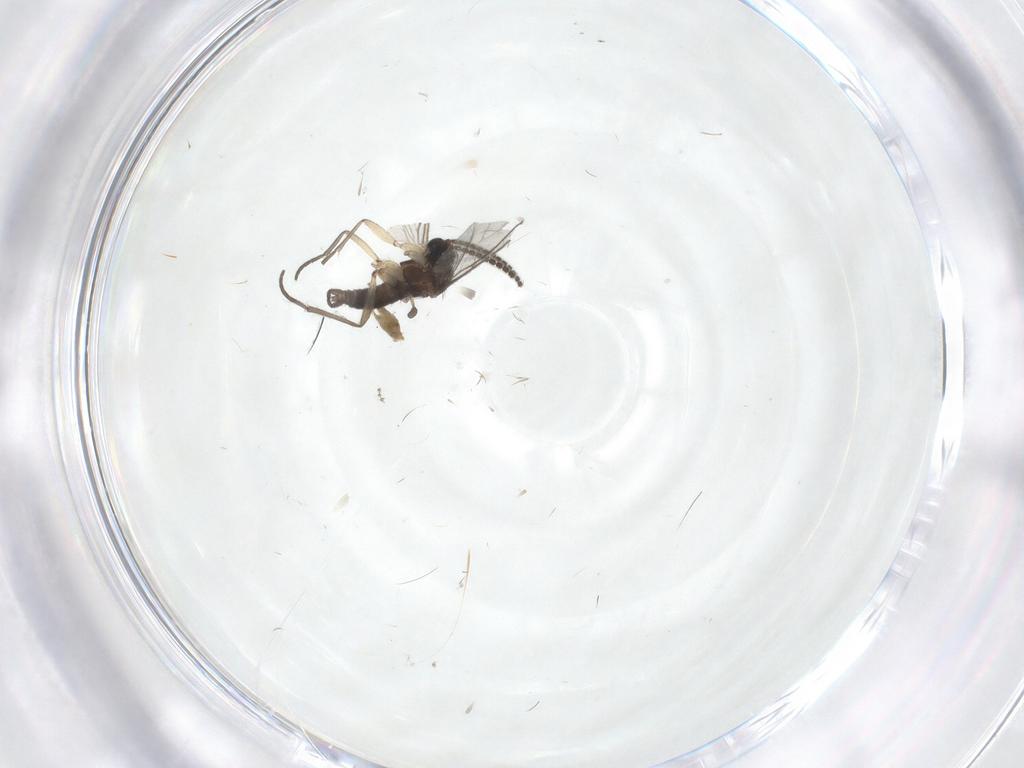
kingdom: Animalia
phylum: Arthropoda
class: Insecta
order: Diptera
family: Sciaridae
